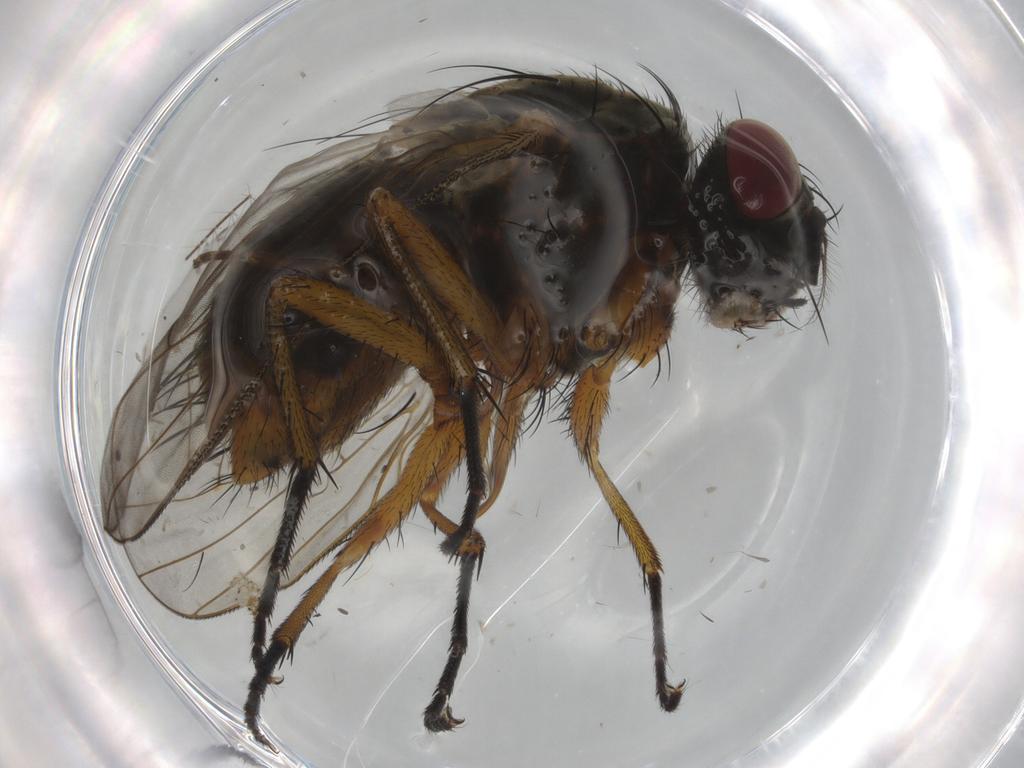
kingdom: Animalia
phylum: Arthropoda
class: Insecta
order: Diptera
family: Muscidae
